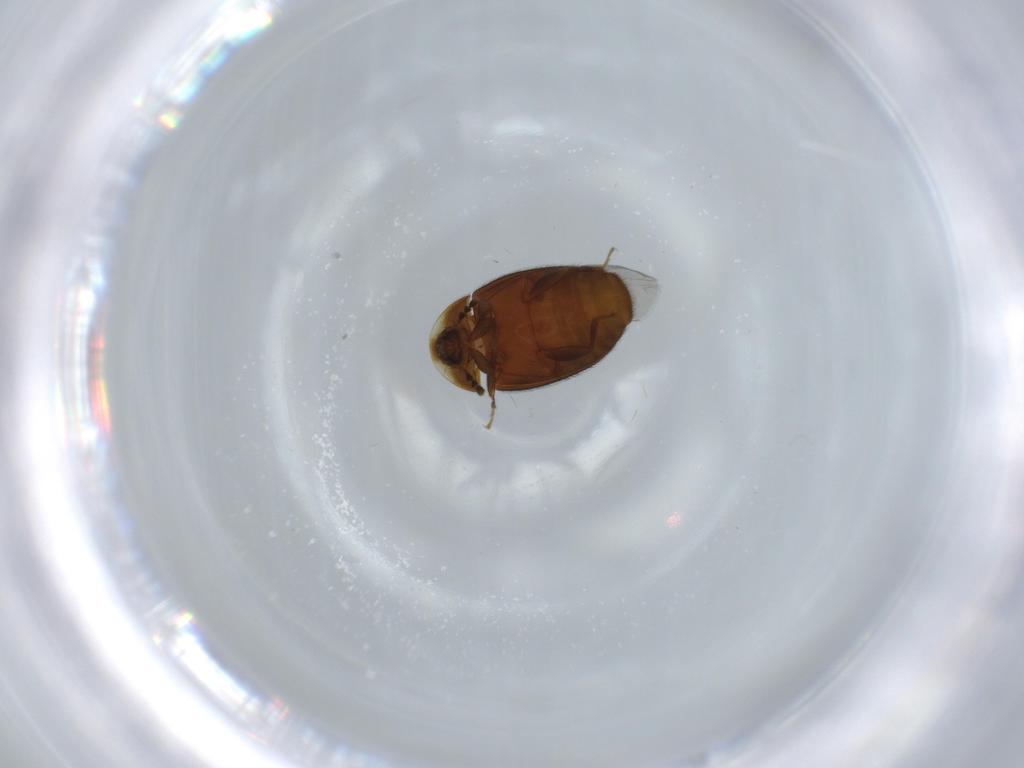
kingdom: Animalia
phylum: Arthropoda
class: Insecta
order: Coleoptera
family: Corylophidae
